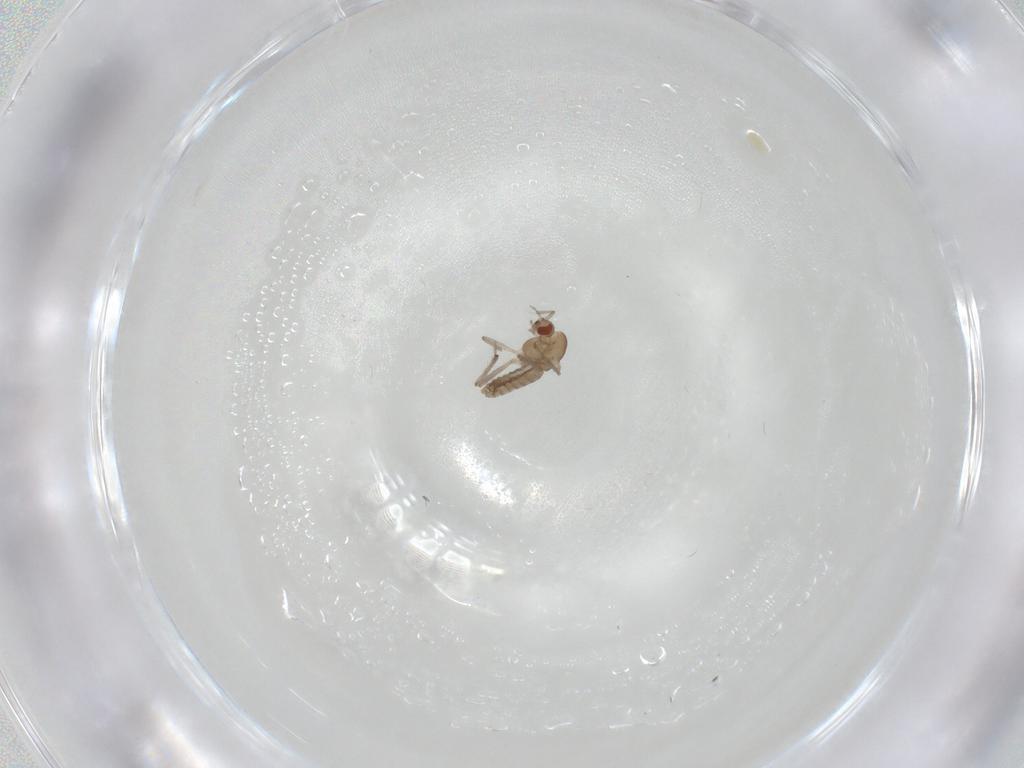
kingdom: Animalia
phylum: Arthropoda
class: Insecta
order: Diptera
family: Chironomidae
